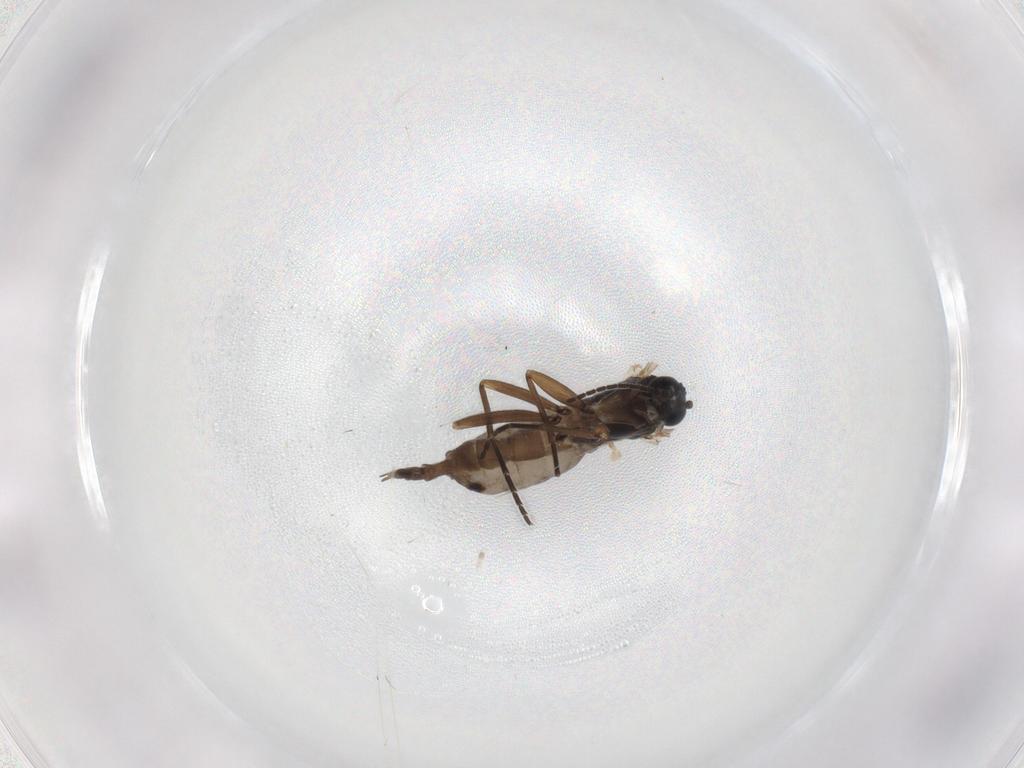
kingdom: Animalia
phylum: Arthropoda
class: Insecta
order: Diptera
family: Sciaridae
